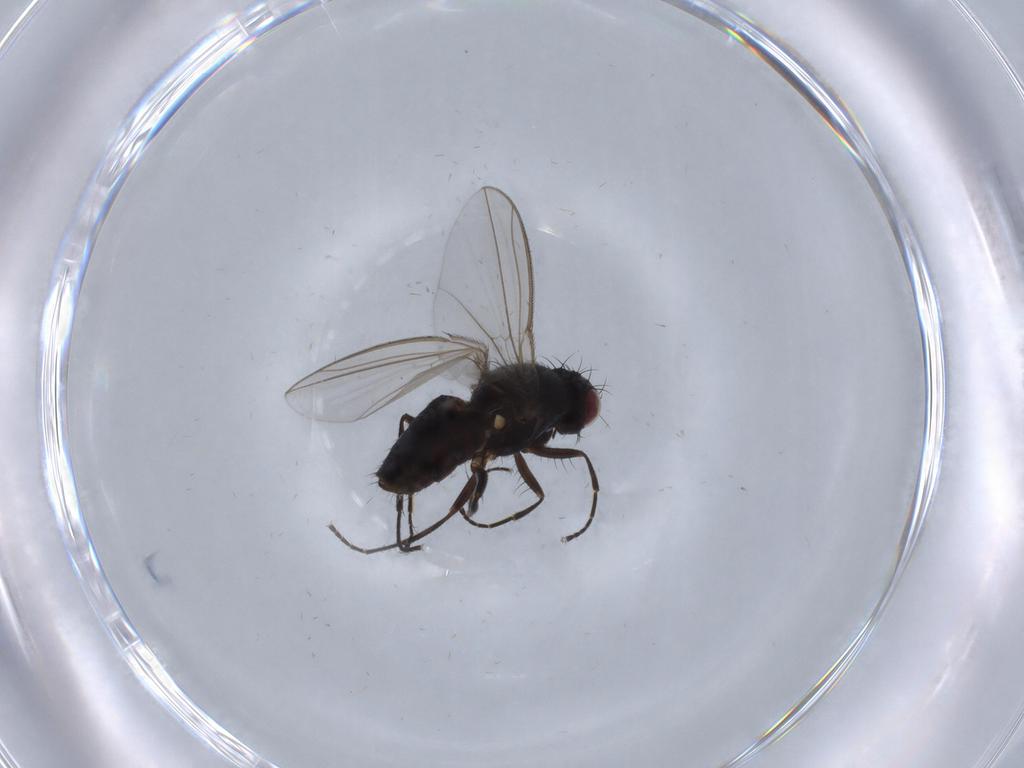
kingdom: Animalia
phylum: Arthropoda
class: Insecta
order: Diptera
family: Carnidae
